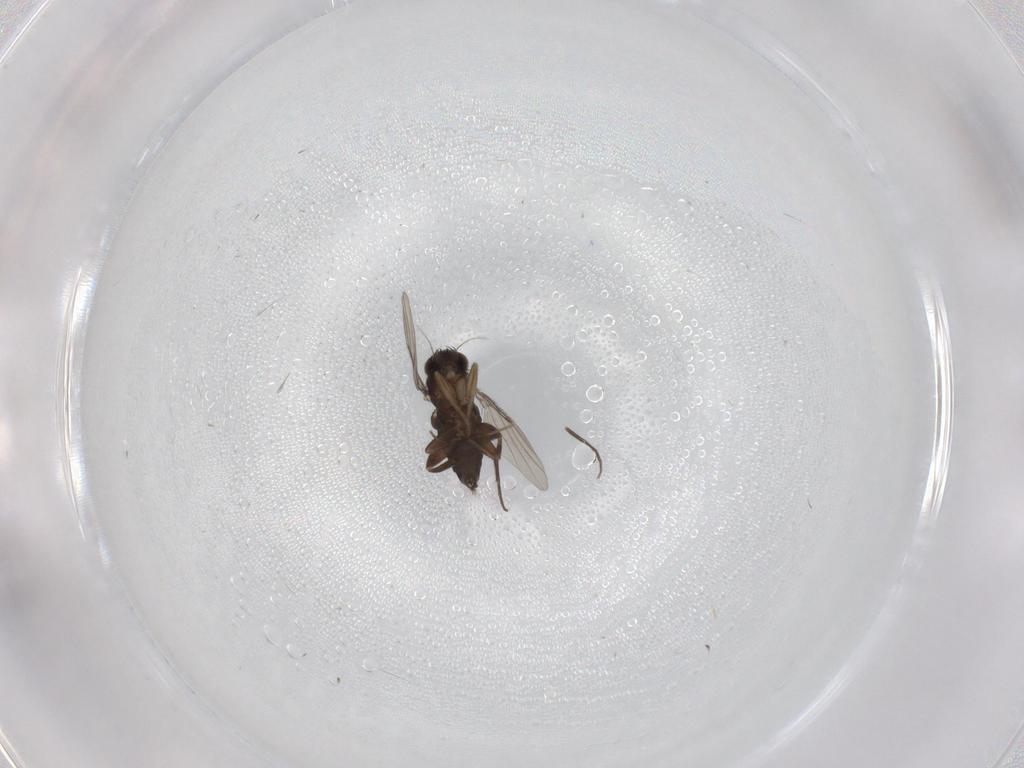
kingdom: Animalia
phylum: Arthropoda
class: Insecta
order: Diptera
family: Phoridae
